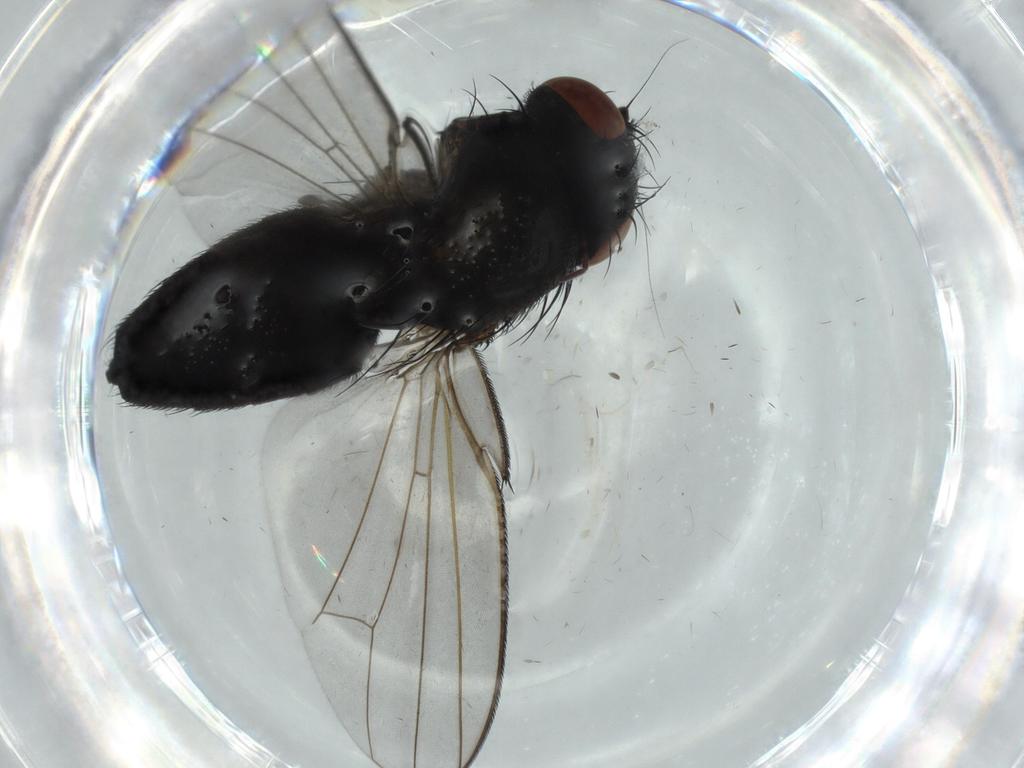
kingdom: Animalia
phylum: Arthropoda
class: Insecta
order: Diptera
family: Milichiidae
